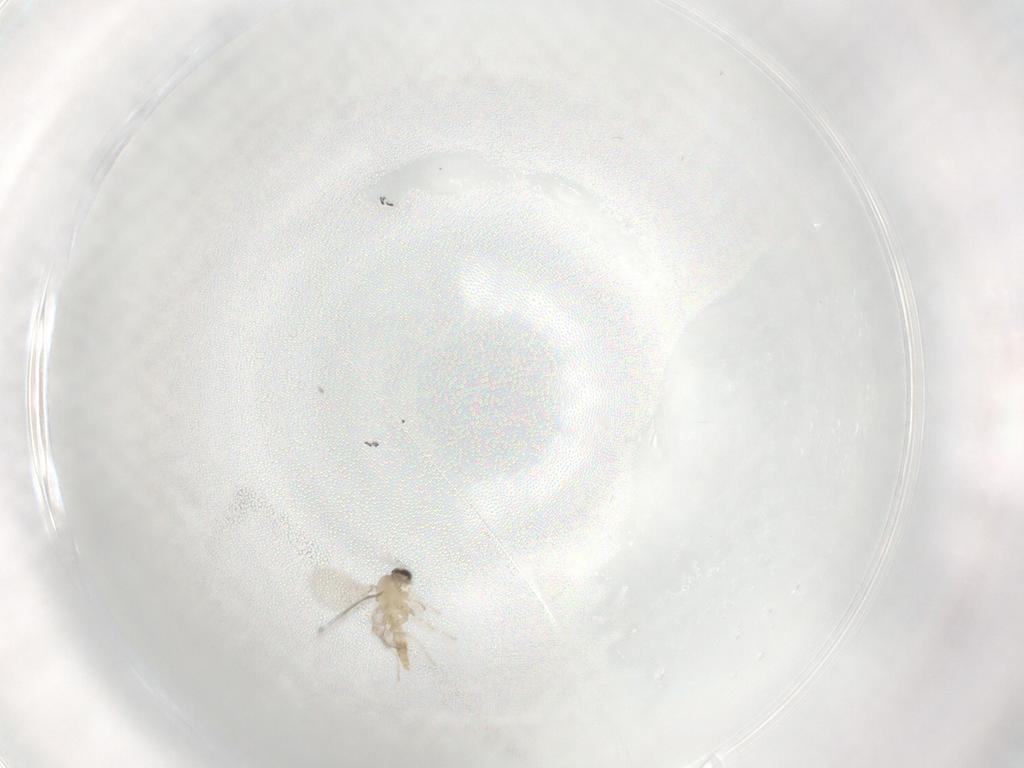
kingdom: Animalia
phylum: Arthropoda
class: Insecta
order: Diptera
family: Cecidomyiidae
